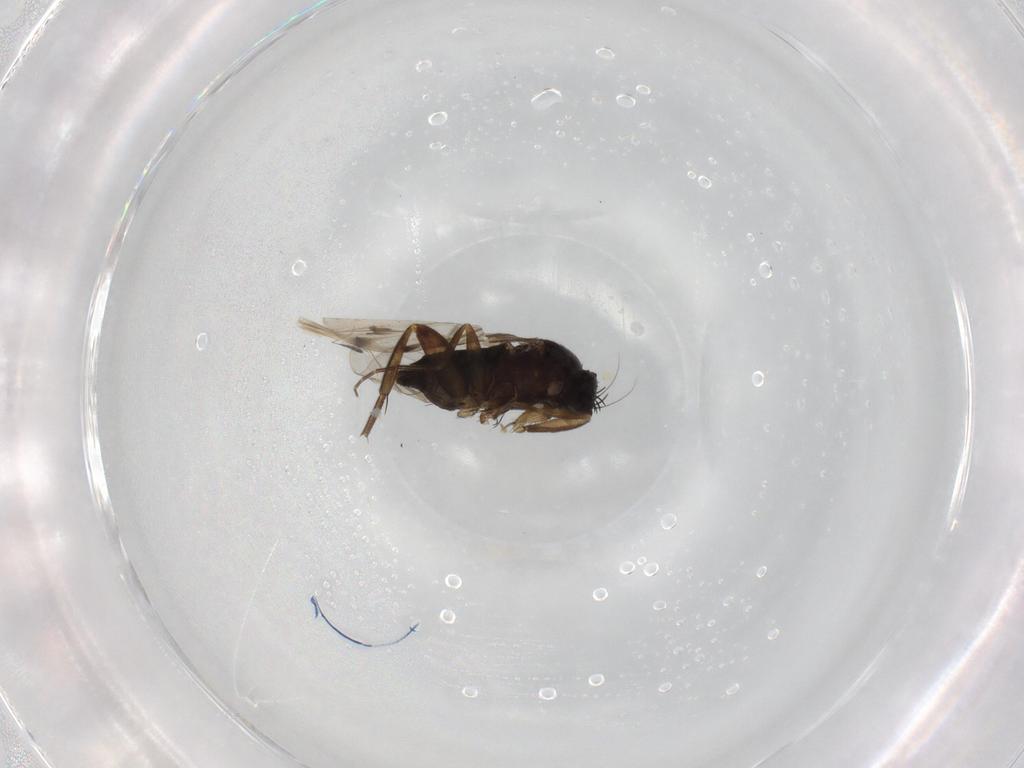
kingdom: Animalia
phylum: Arthropoda
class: Insecta
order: Diptera
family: Phoridae
